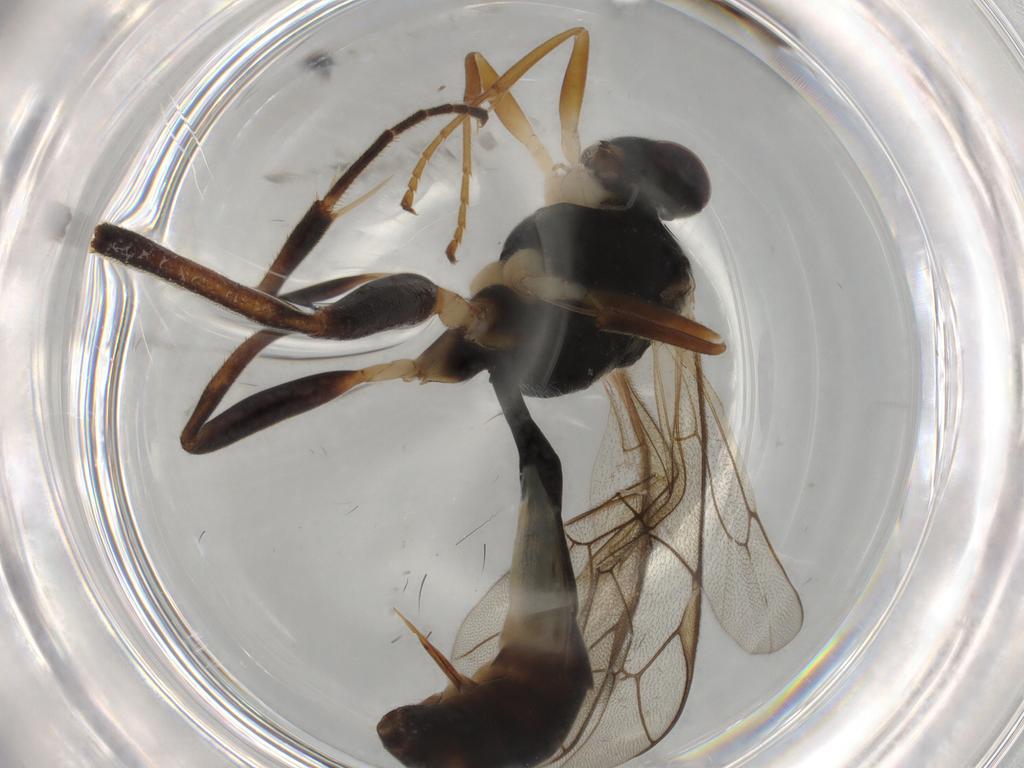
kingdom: Animalia
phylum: Arthropoda
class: Insecta
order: Hymenoptera
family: Ichneumonidae
